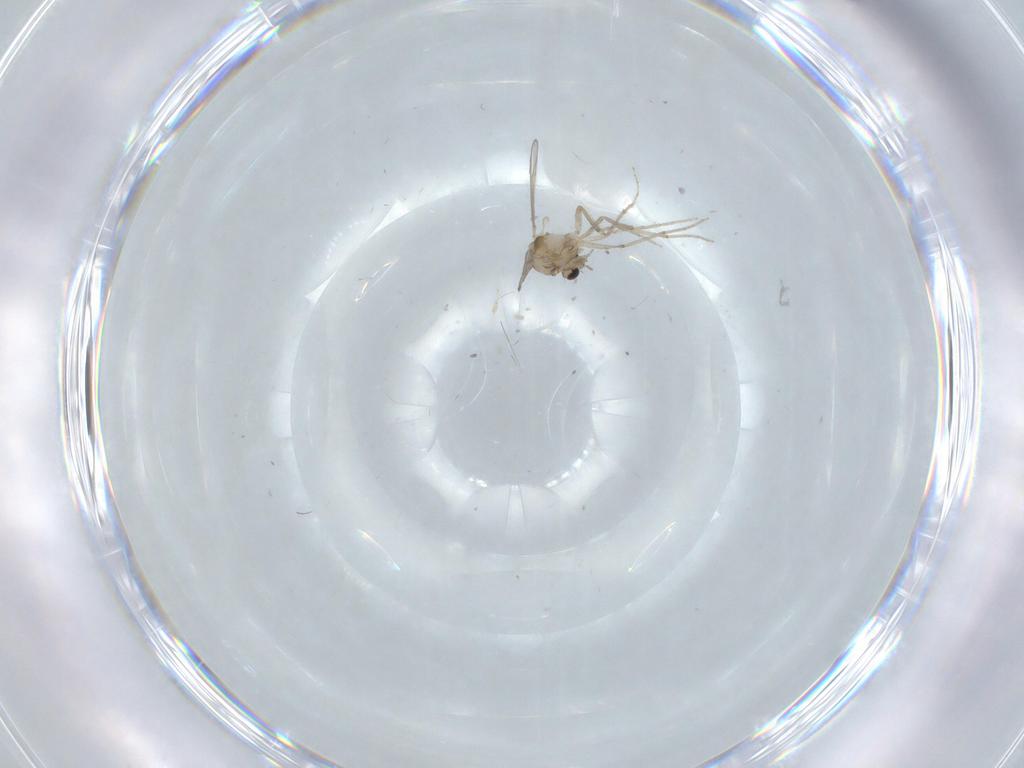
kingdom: Animalia
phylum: Arthropoda
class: Insecta
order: Diptera
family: Chironomidae
